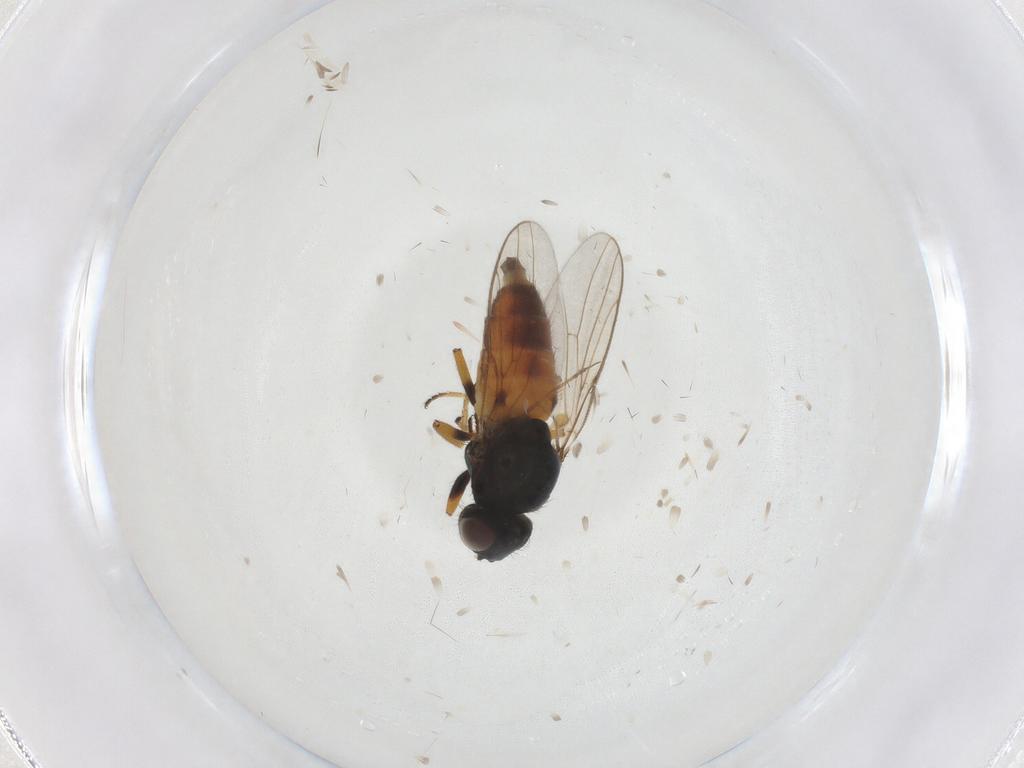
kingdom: Animalia
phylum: Arthropoda
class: Insecta
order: Diptera
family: Chloropidae
